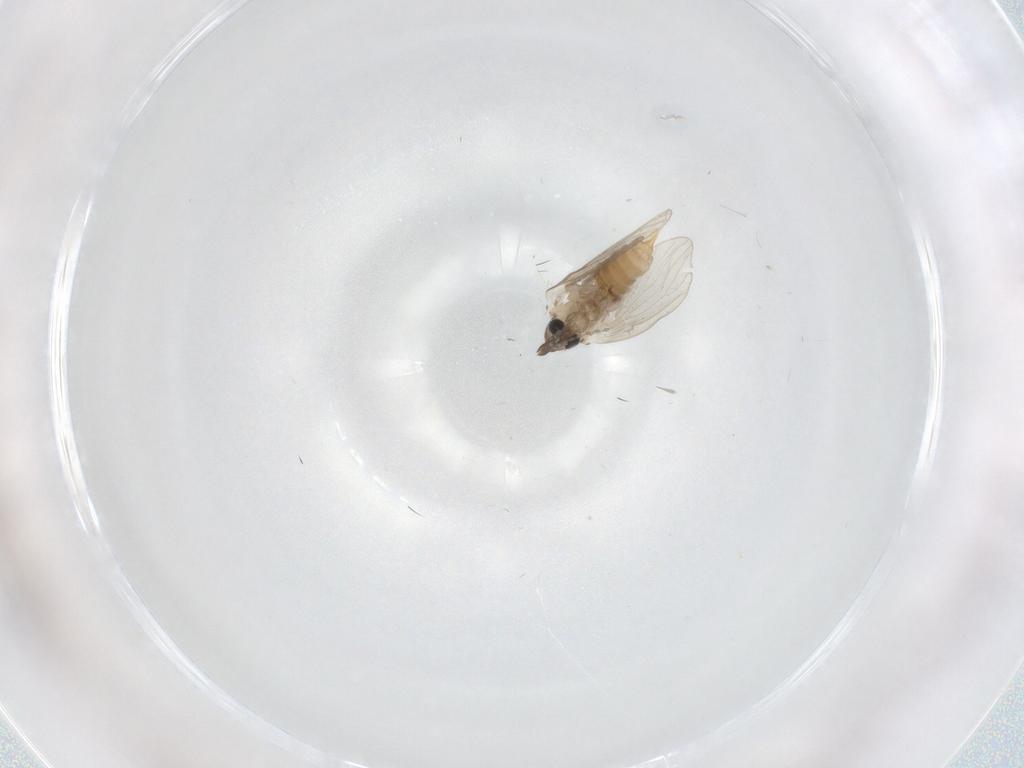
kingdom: Animalia
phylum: Arthropoda
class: Insecta
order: Diptera
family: Psychodidae
